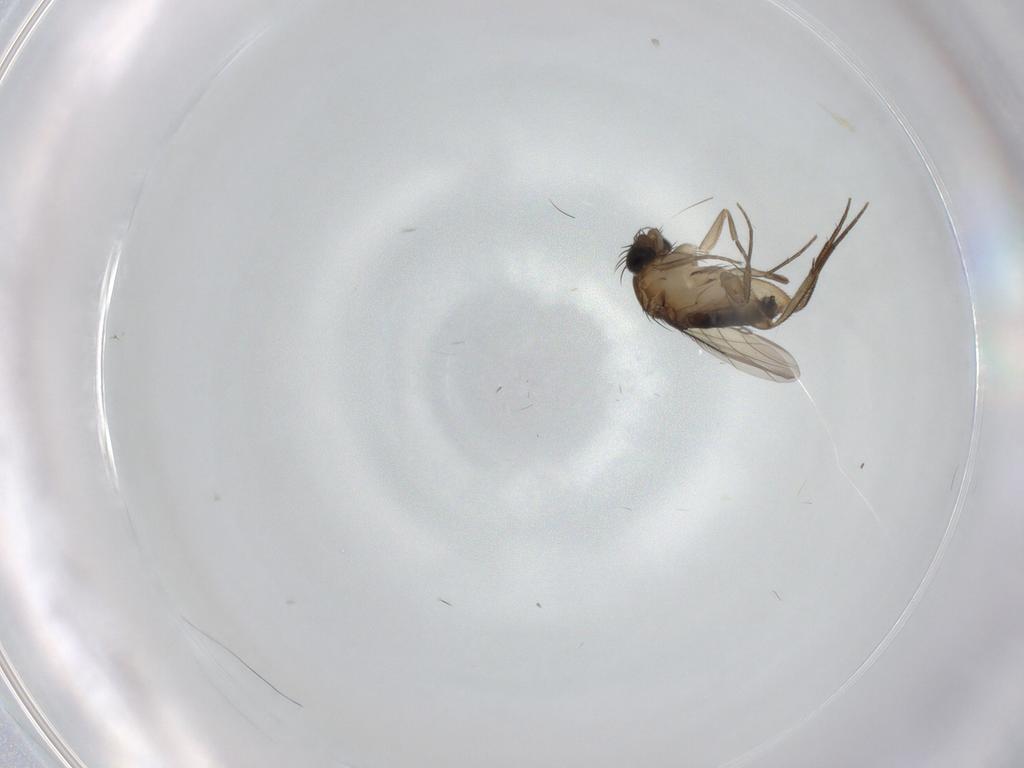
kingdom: Animalia
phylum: Arthropoda
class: Insecta
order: Diptera
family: Phoridae
